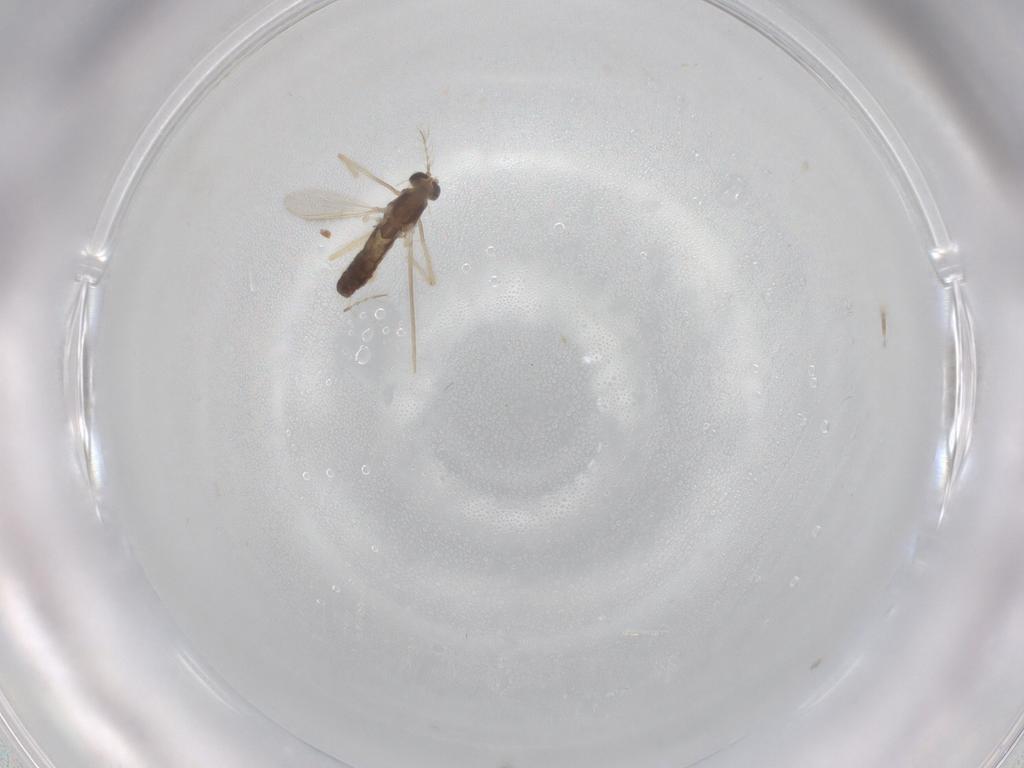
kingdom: Animalia
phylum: Arthropoda
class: Insecta
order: Diptera
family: Chironomidae
